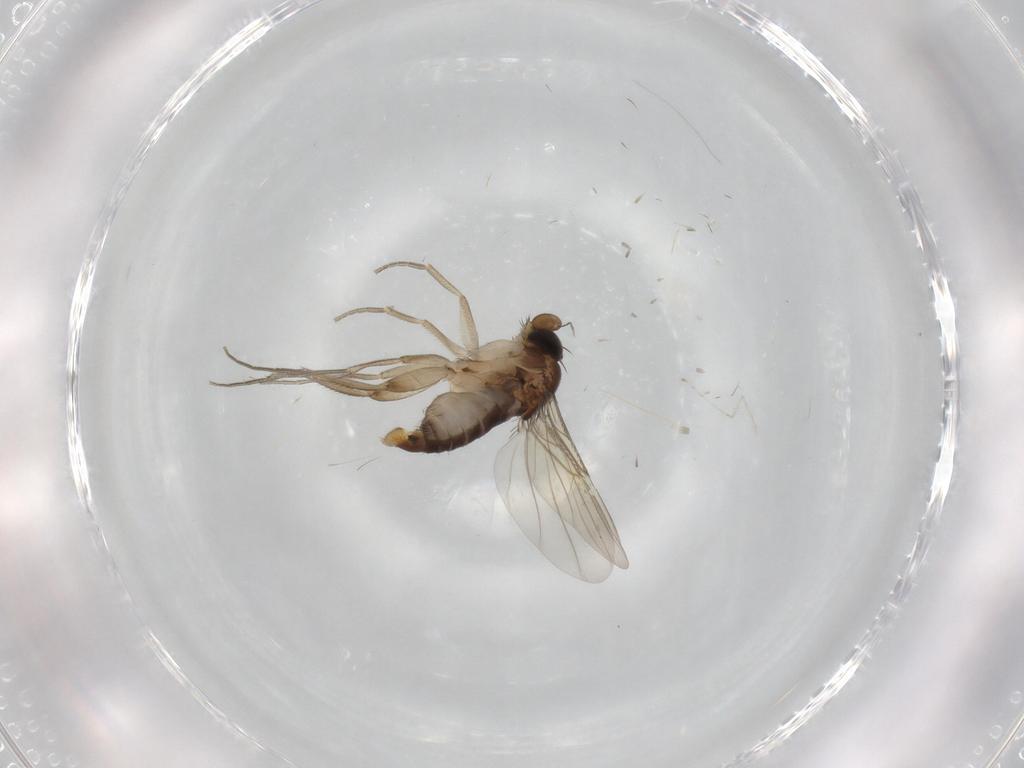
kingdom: Animalia
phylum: Arthropoda
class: Insecta
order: Diptera
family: Phoridae
